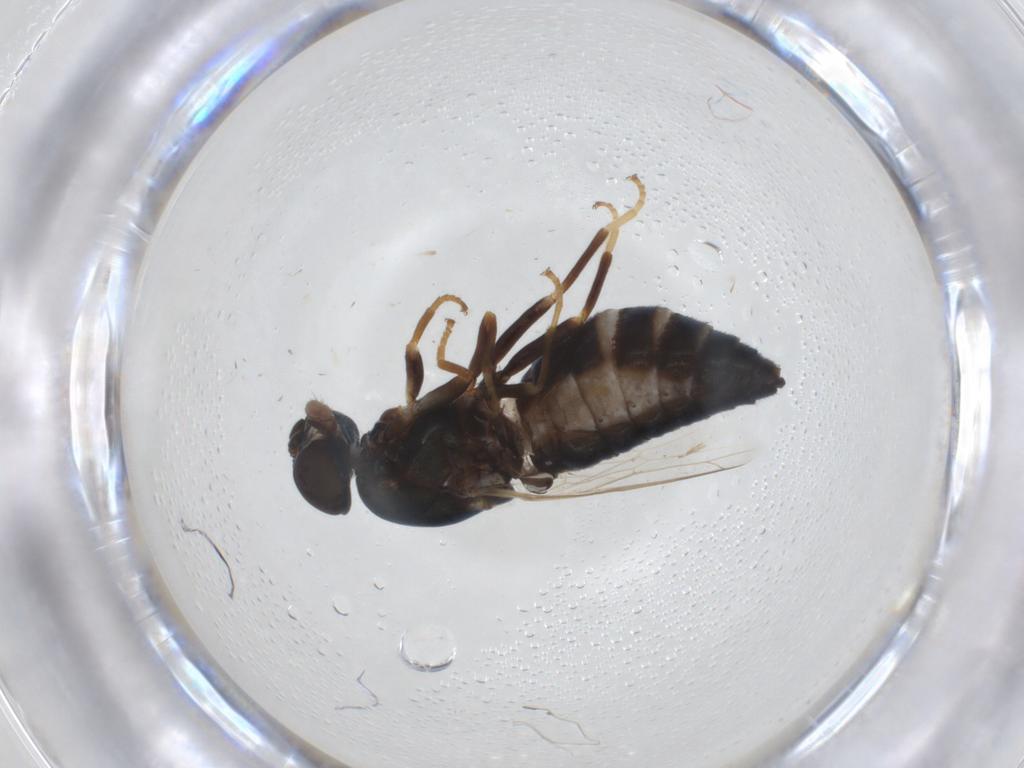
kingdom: Animalia
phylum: Arthropoda
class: Insecta
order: Diptera
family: Scenopinidae
